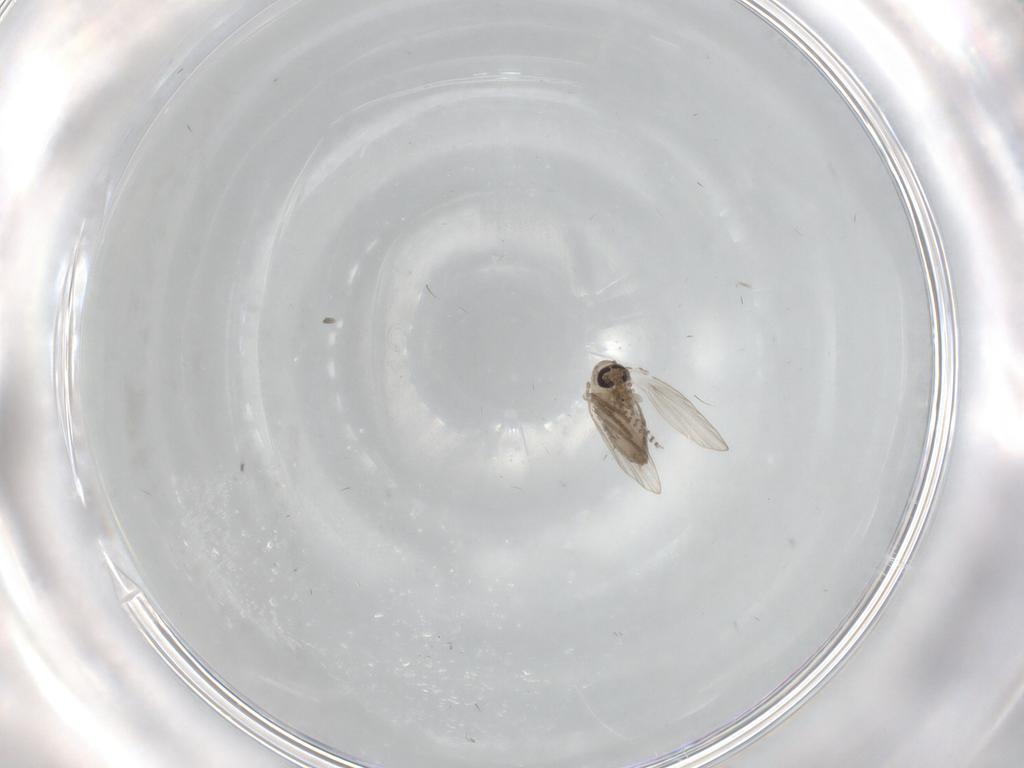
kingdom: Animalia
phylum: Arthropoda
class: Insecta
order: Diptera
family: Psychodidae
